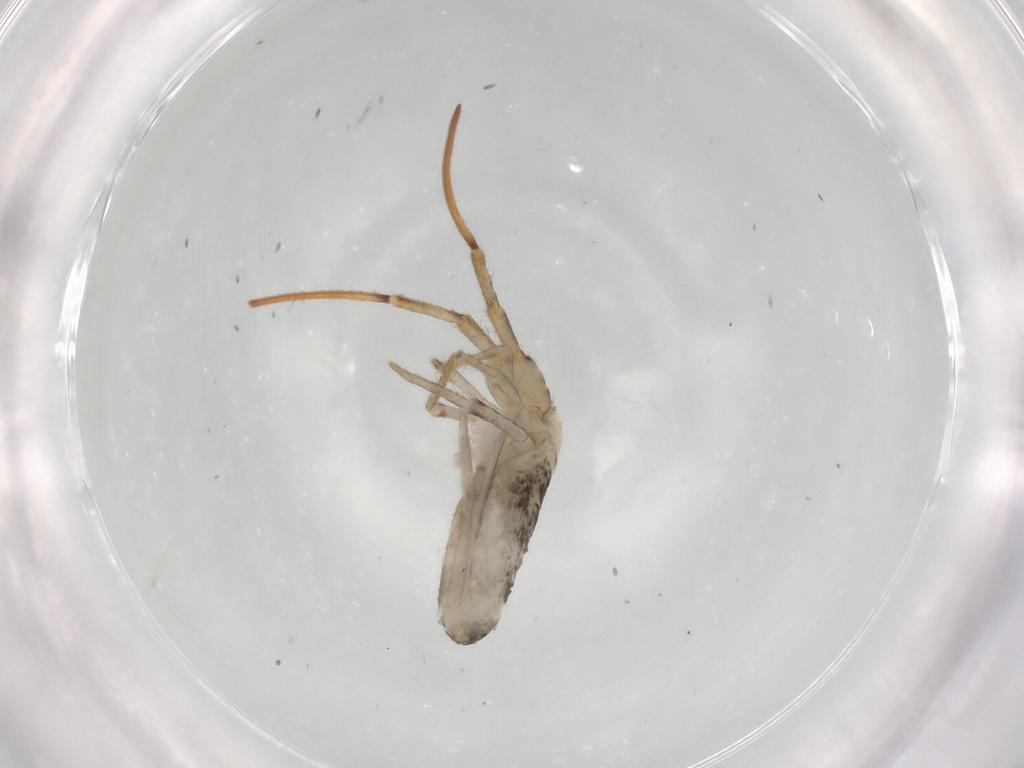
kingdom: Animalia
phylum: Arthropoda
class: Collembola
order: Poduromorpha
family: Hypogastruridae
